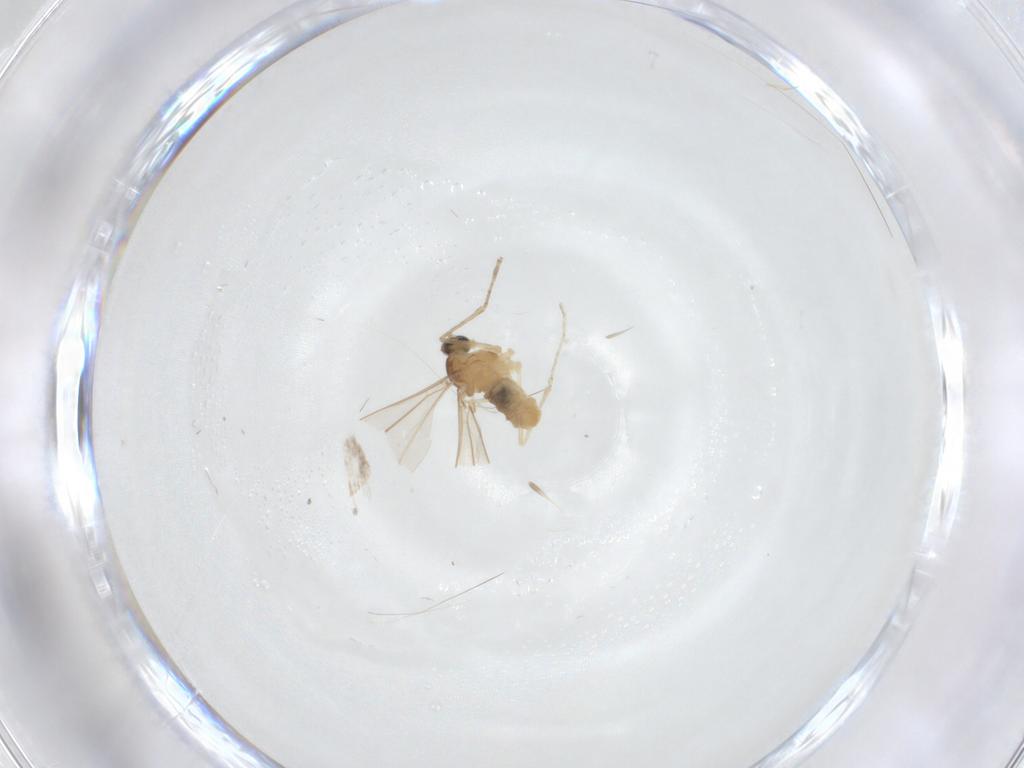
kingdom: Animalia
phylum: Arthropoda
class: Insecta
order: Diptera
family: Cecidomyiidae
